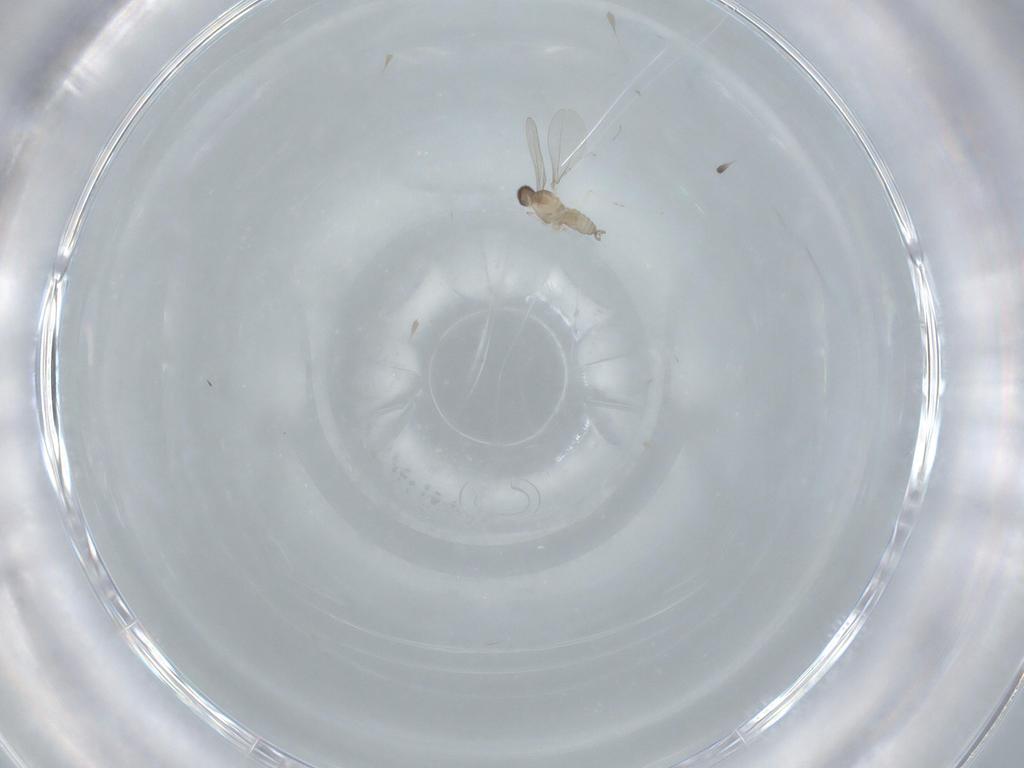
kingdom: Animalia
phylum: Arthropoda
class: Insecta
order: Diptera
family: Cecidomyiidae
